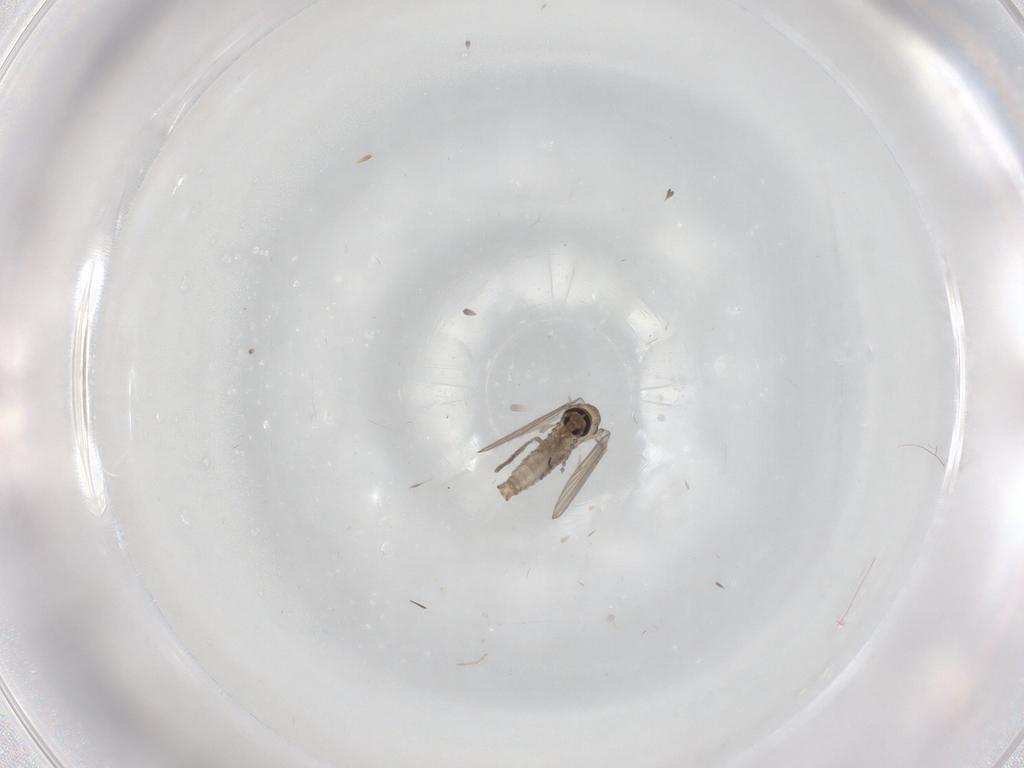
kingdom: Animalia
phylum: Arthropoda
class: Insecta
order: Diptera
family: Psychodidae
